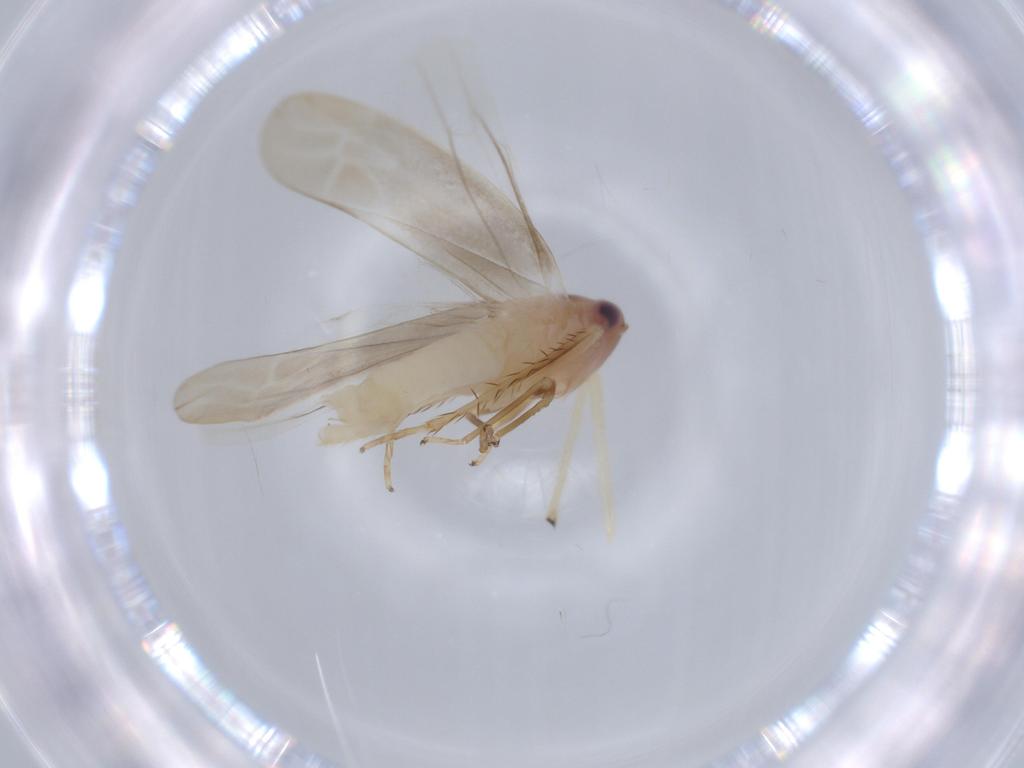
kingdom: Animalia
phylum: Arthropoda
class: Insecta
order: Hemiptera
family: Cicadellidae
